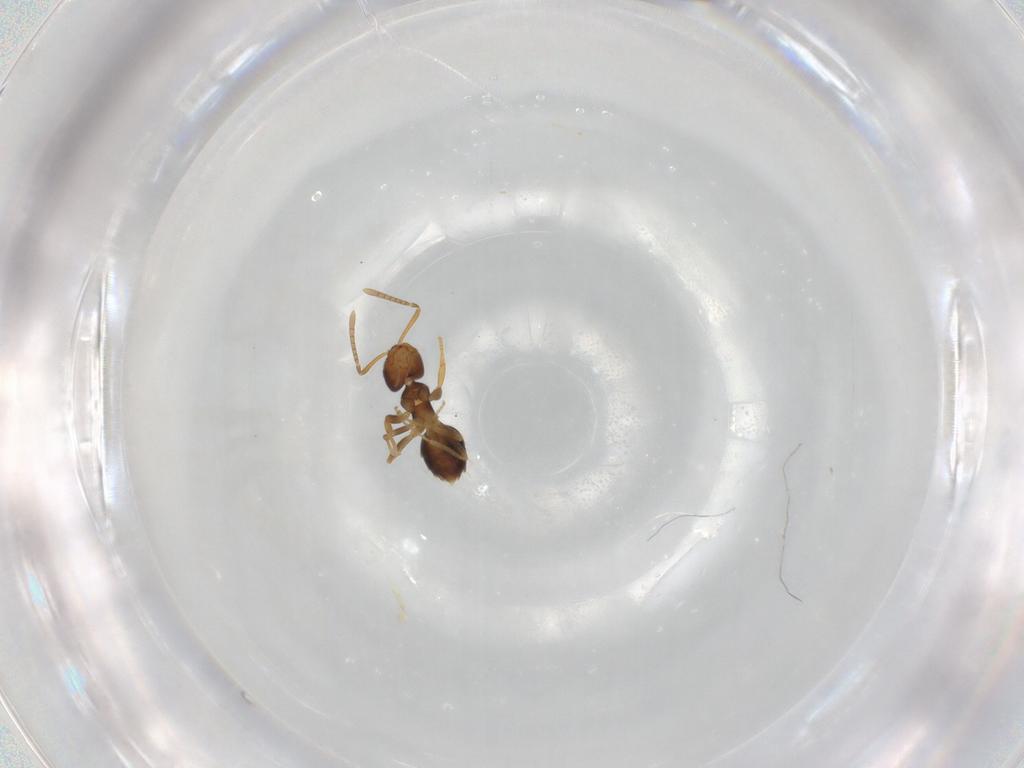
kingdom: Animalia
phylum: Arthropoda
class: Insecta
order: Hymenoptera
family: Formicidae
